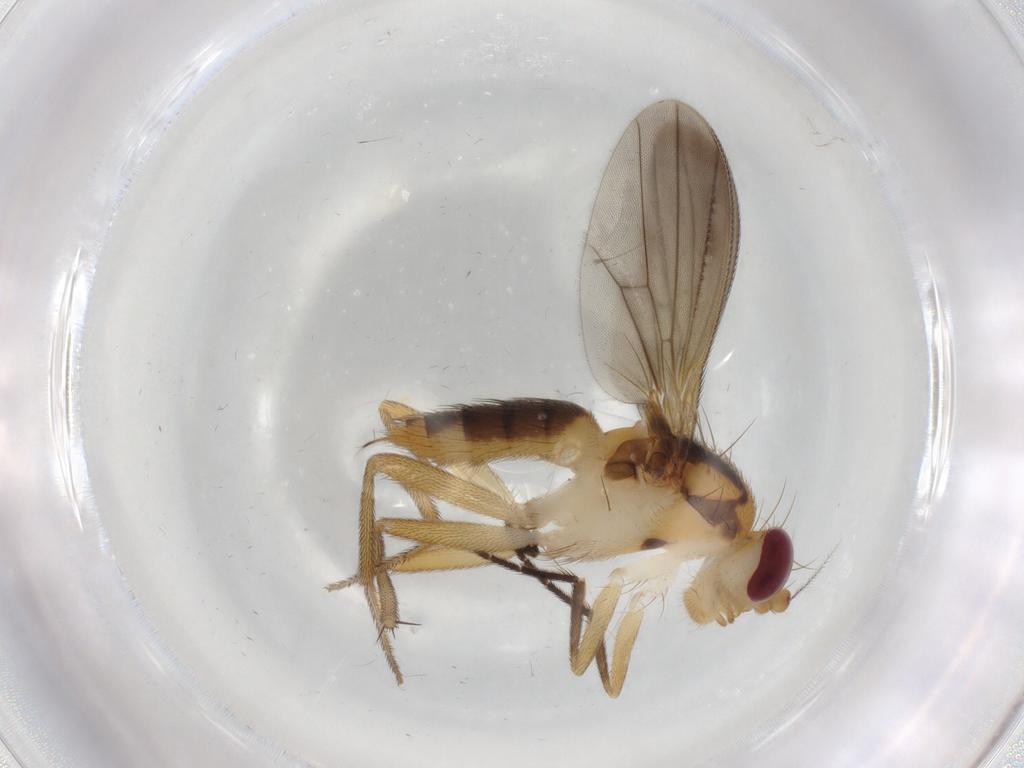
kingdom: Animalia
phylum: Arthropoda
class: Insecta
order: Diptera
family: Clusiidae
